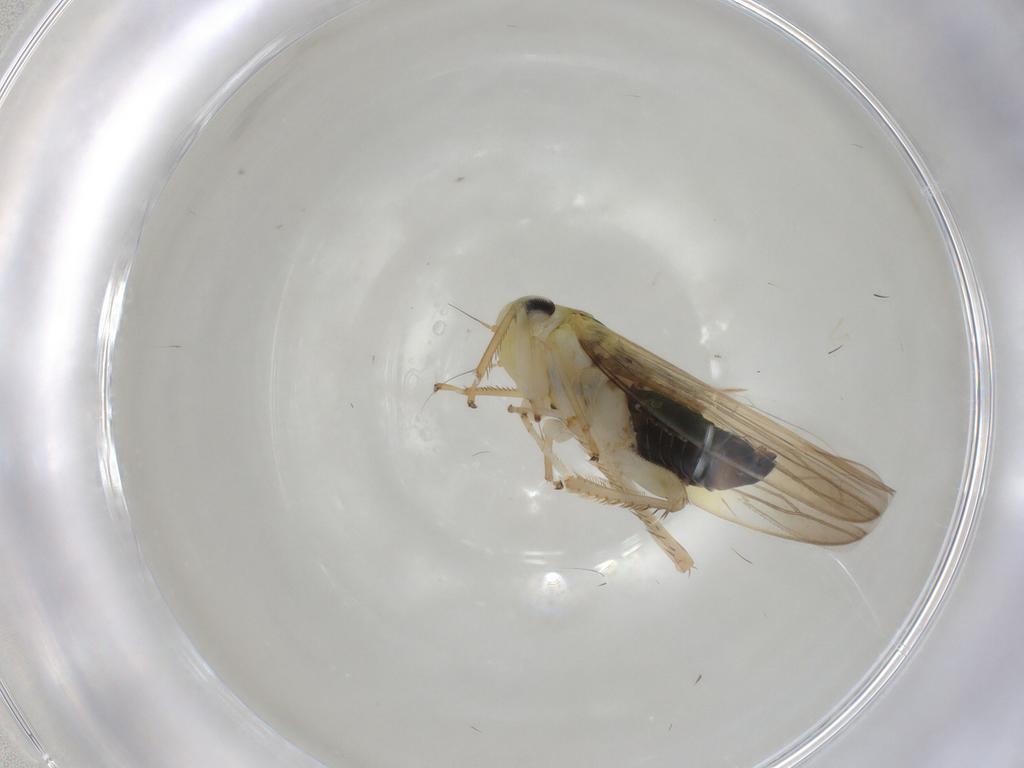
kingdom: Animalia
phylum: Arthropoda
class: Insecta
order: Hemiptera
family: Cicadellidae
